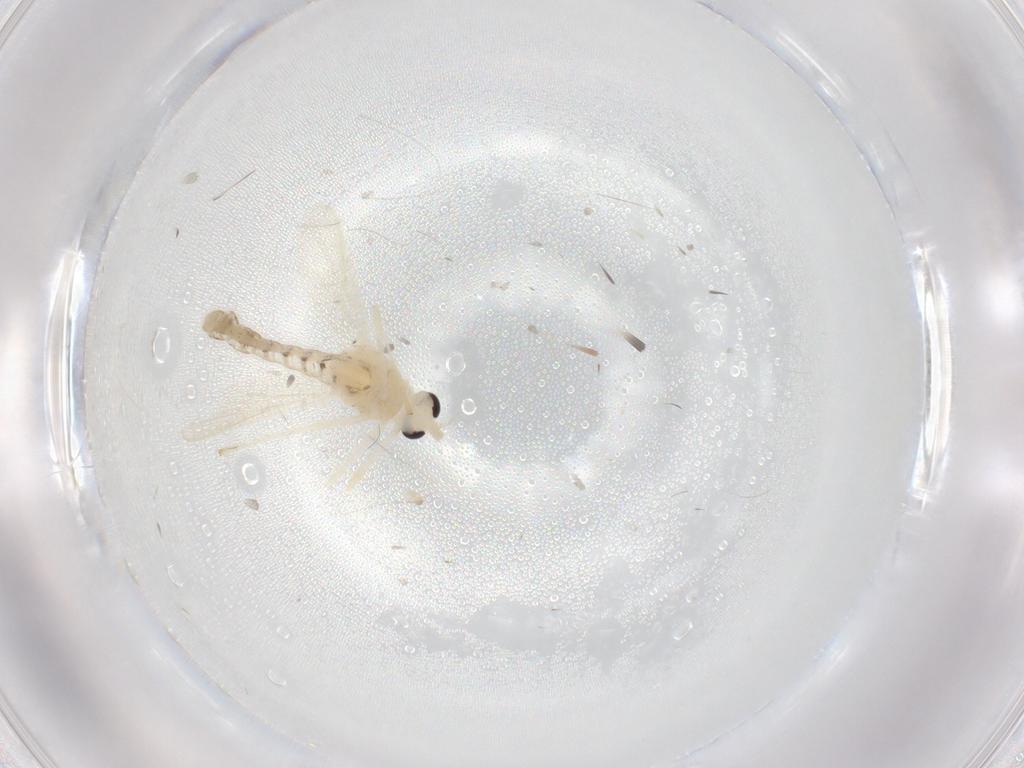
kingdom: Animalia
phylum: Arthropoda
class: Insecta
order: Diptera
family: Chironomidae
